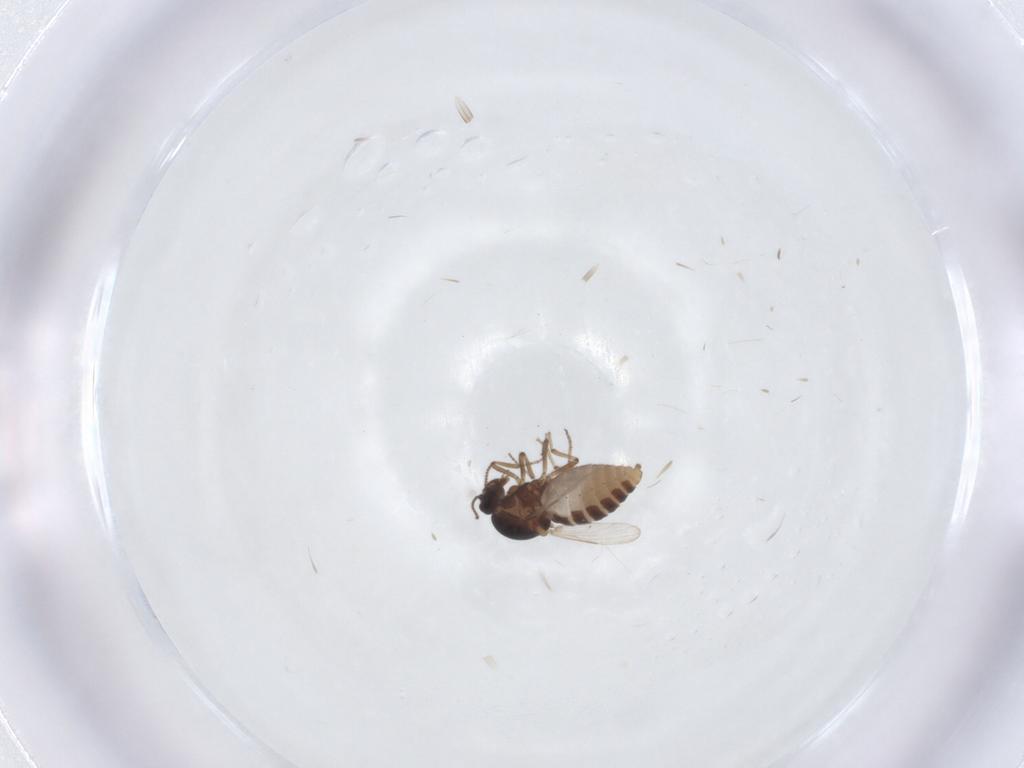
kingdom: Animalia
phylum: Arthropoda
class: Insecta
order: Diptera
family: Ceratopogonidae
